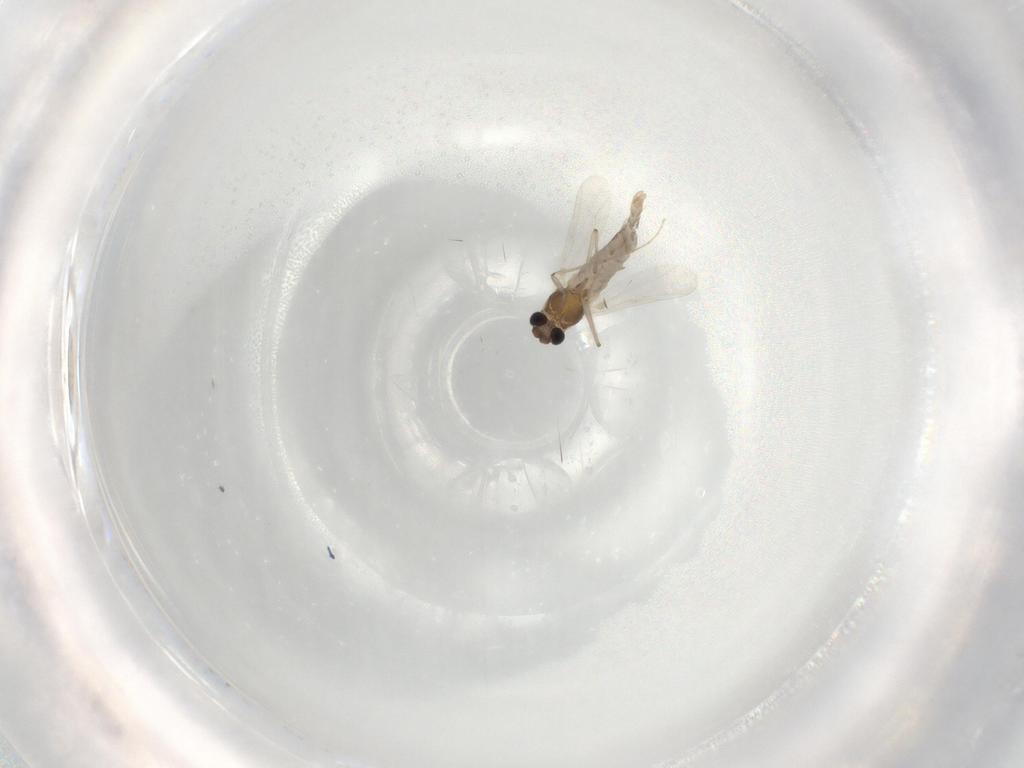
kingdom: Animalia
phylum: Arthropoda
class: Insecta
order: Diptera
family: Chironomidae
